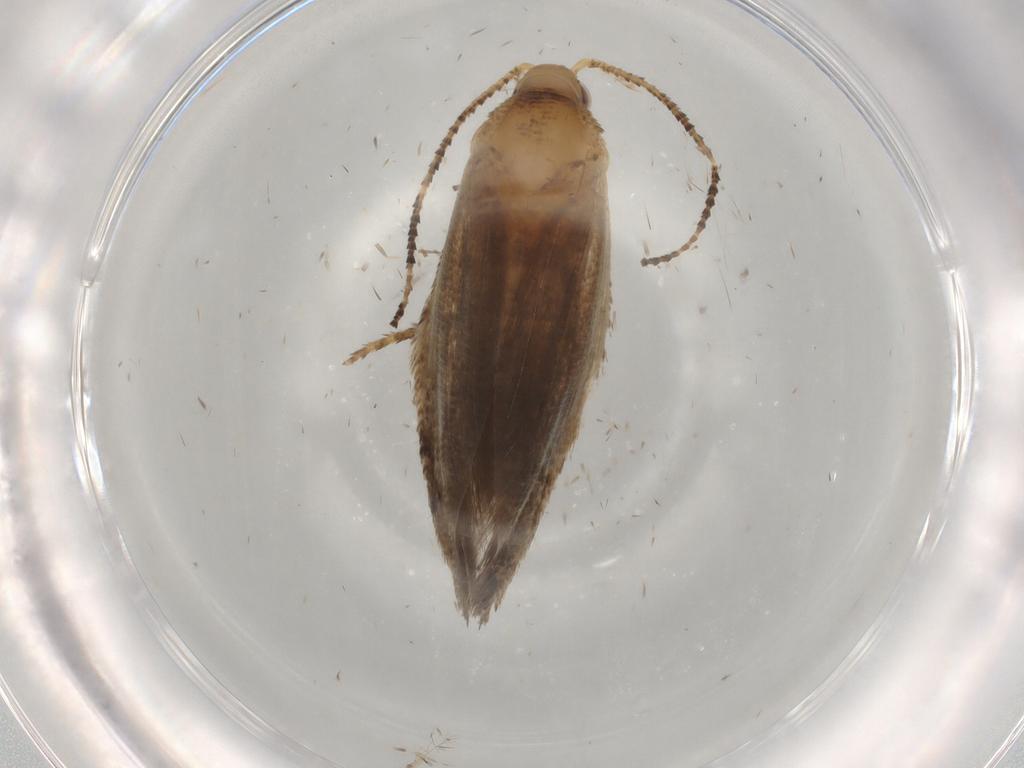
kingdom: Animalia
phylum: Arthropoda
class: Insecta
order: Lepidoptera
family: Ypsolophidae
